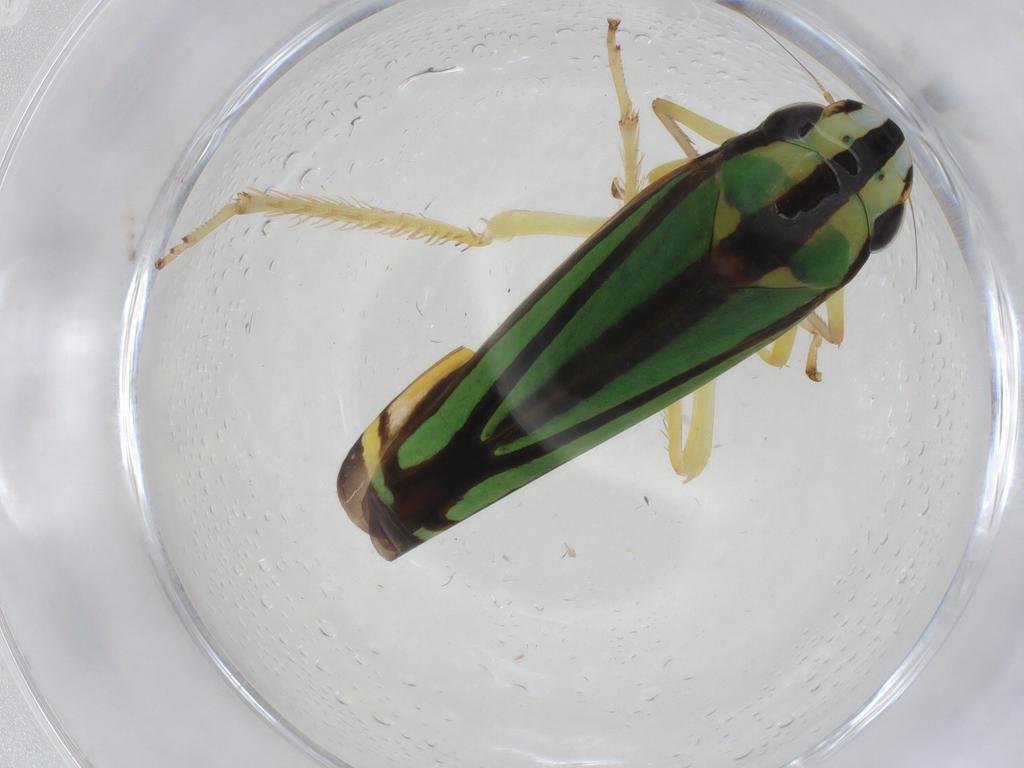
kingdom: Animalia
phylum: Arthropoda
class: Insecta
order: Hemiptera
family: Cicadellidae
